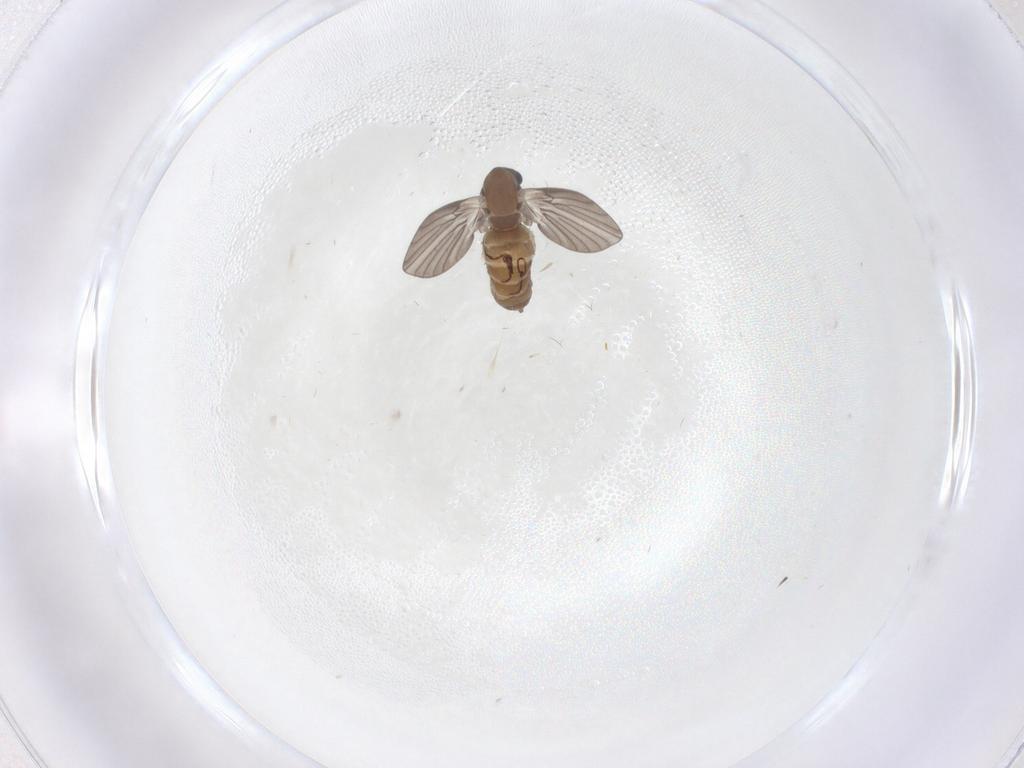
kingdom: Animalia
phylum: Arthropoda
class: Insecta
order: Diptera
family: Psychodidae
